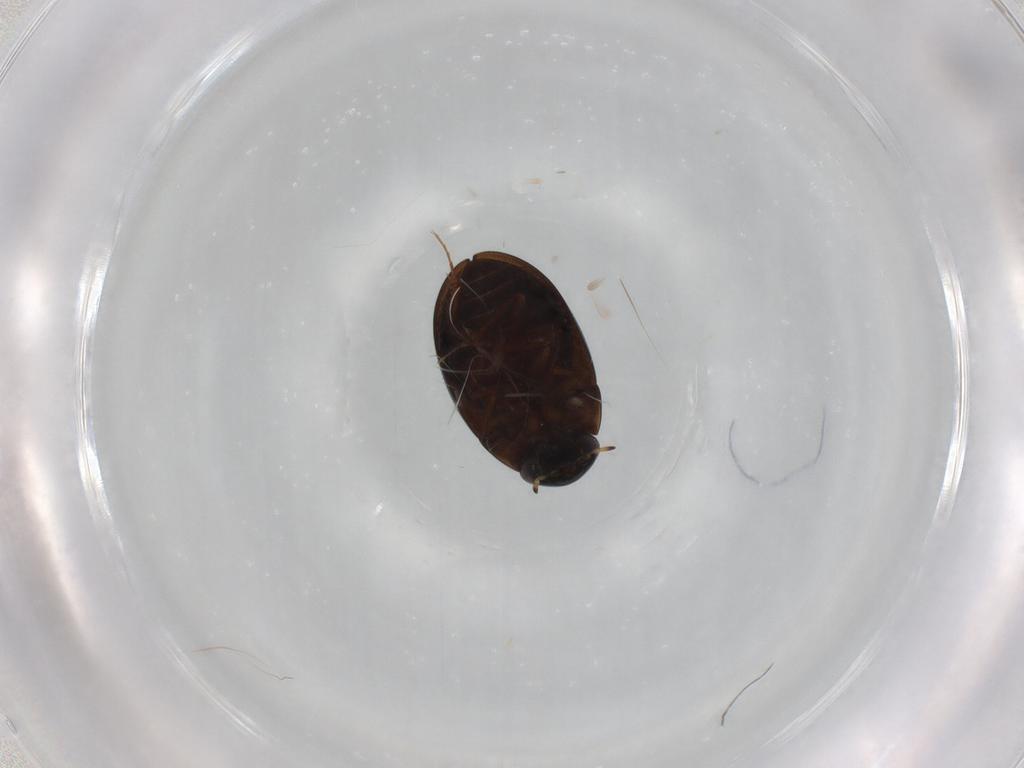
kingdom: Animalia
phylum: Arthropoda
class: Insecta
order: Coleoptera
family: Hydrophilidae
